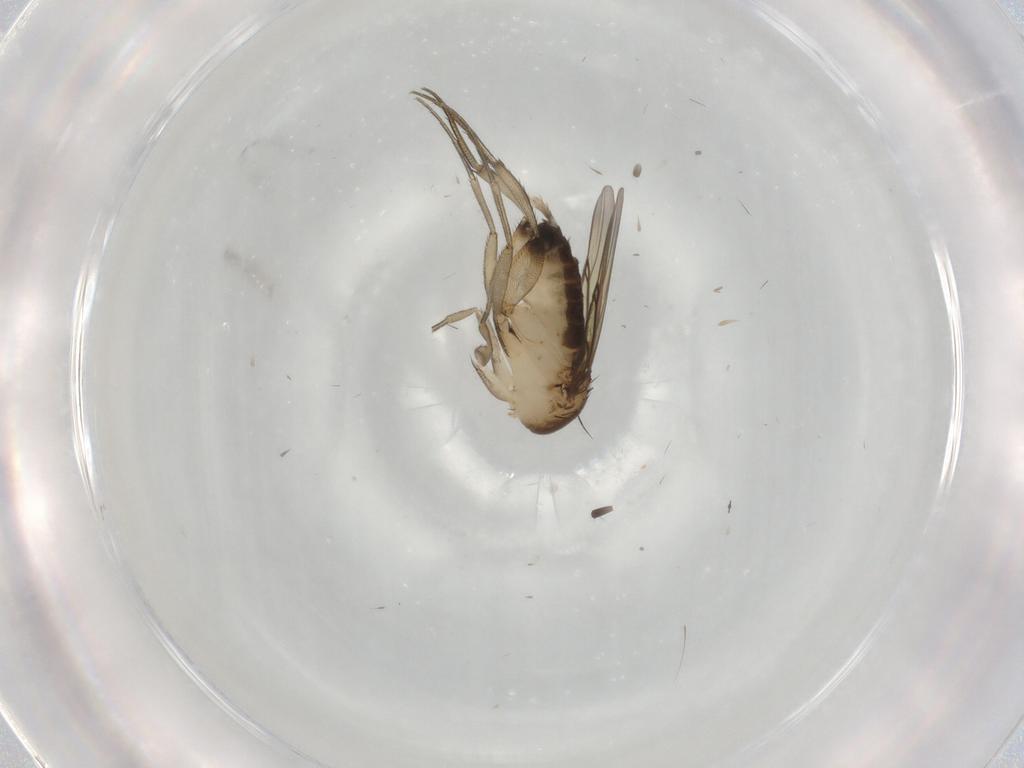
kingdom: Animalia
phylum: Arthropoda
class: Insecta
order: Diptera
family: Phoridae
